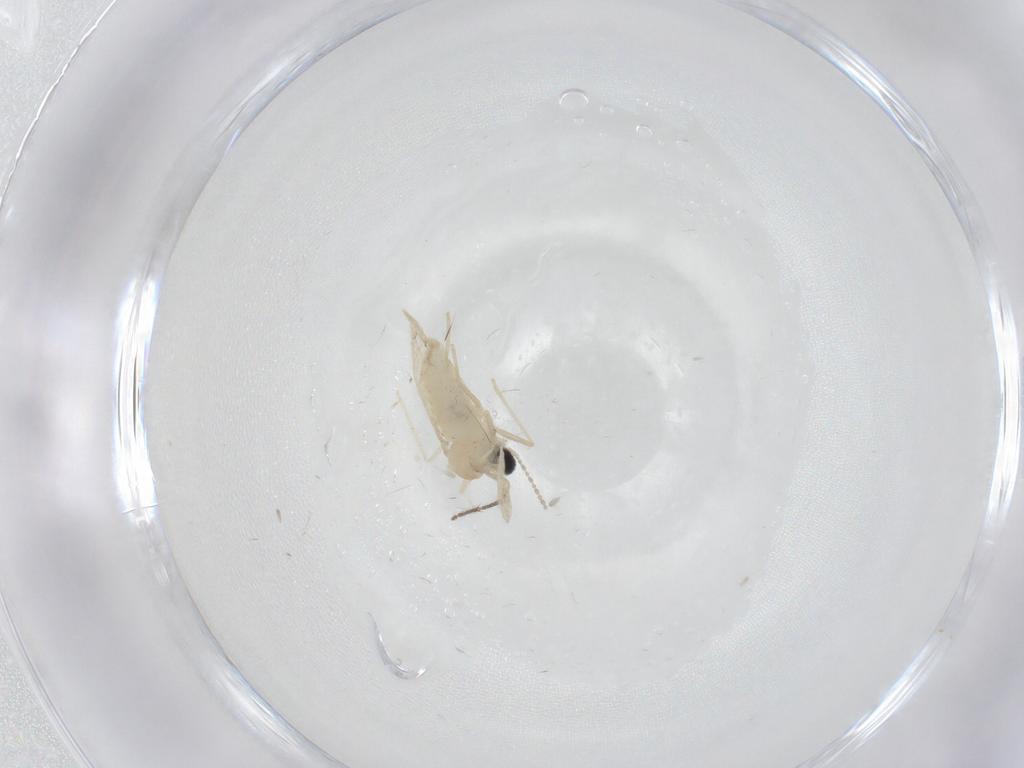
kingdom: Animalia
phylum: Arthropoda
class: Insecta
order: Diptera
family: Cecidomyiidae
